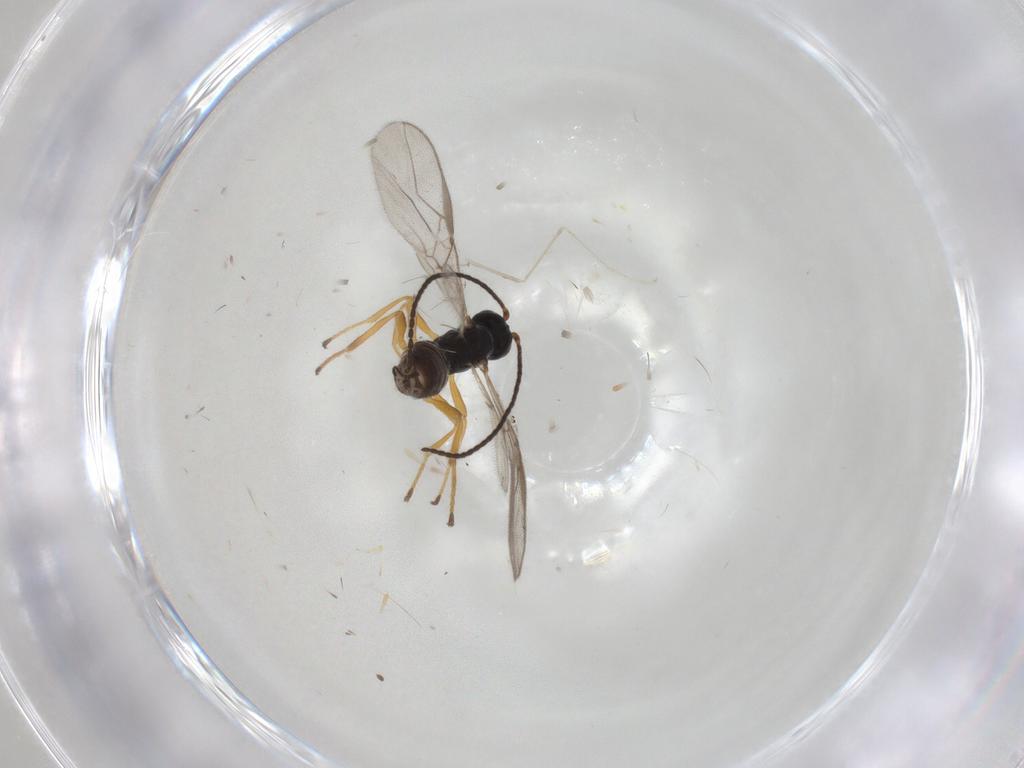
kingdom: Animalia
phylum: Arthropoda
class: Insecta
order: Hymenoptera
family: Trichogrammatidae
